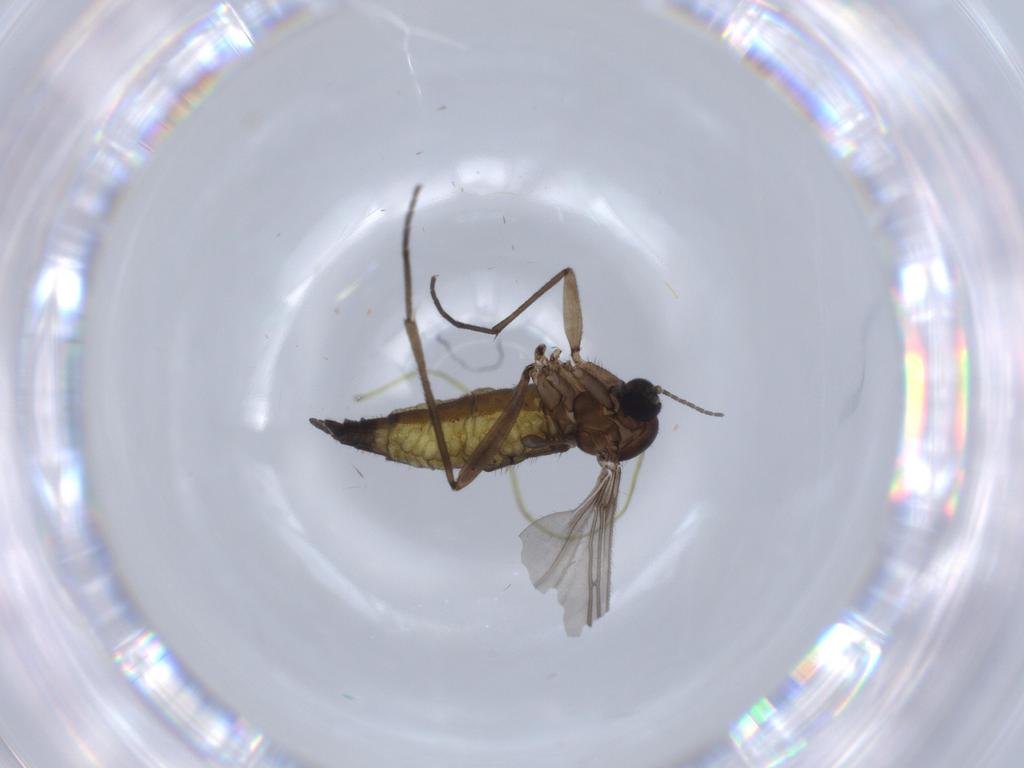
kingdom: Animalia
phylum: Arthropoda
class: Insecta
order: Diptera
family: Sciaridae
